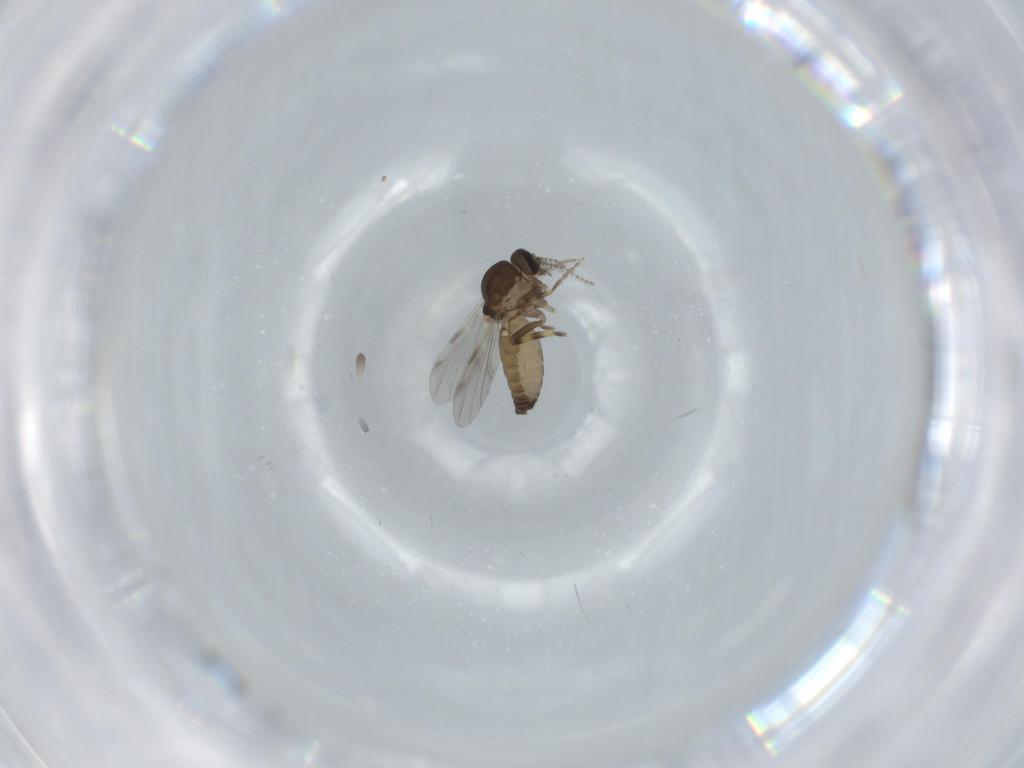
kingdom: Animalia
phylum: Arthropoda
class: Insecta
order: Diptera
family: Ceratopogonidae
